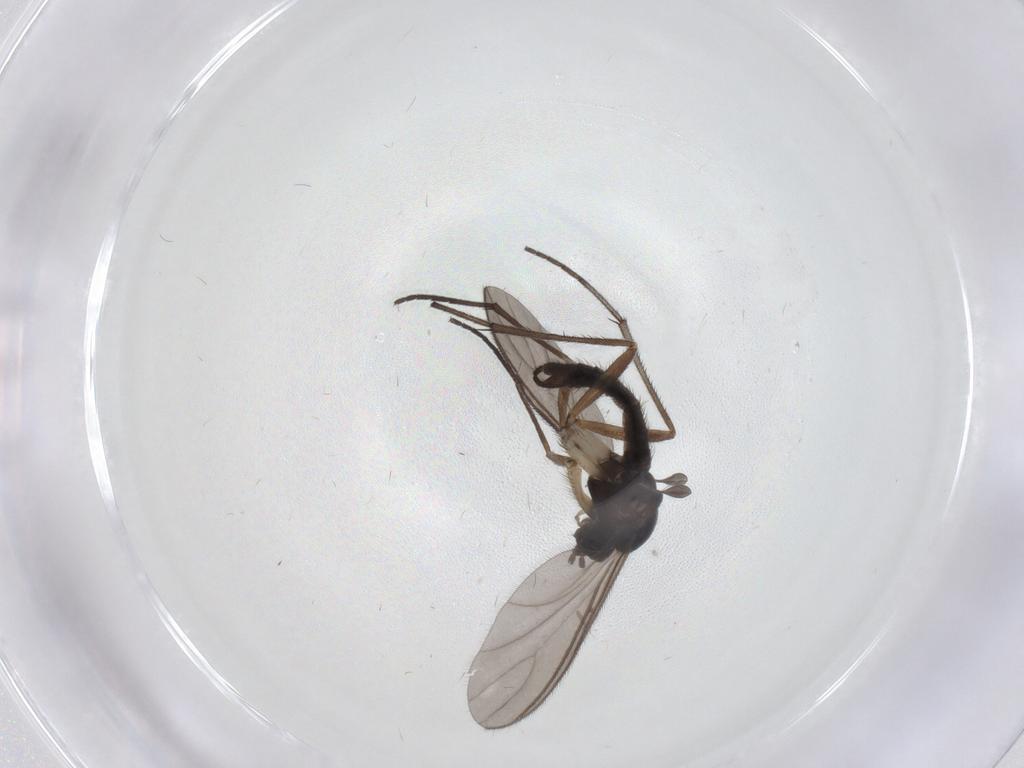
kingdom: Animalia
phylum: Arthropoda
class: Insecta
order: Diptera
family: Sciaridae
